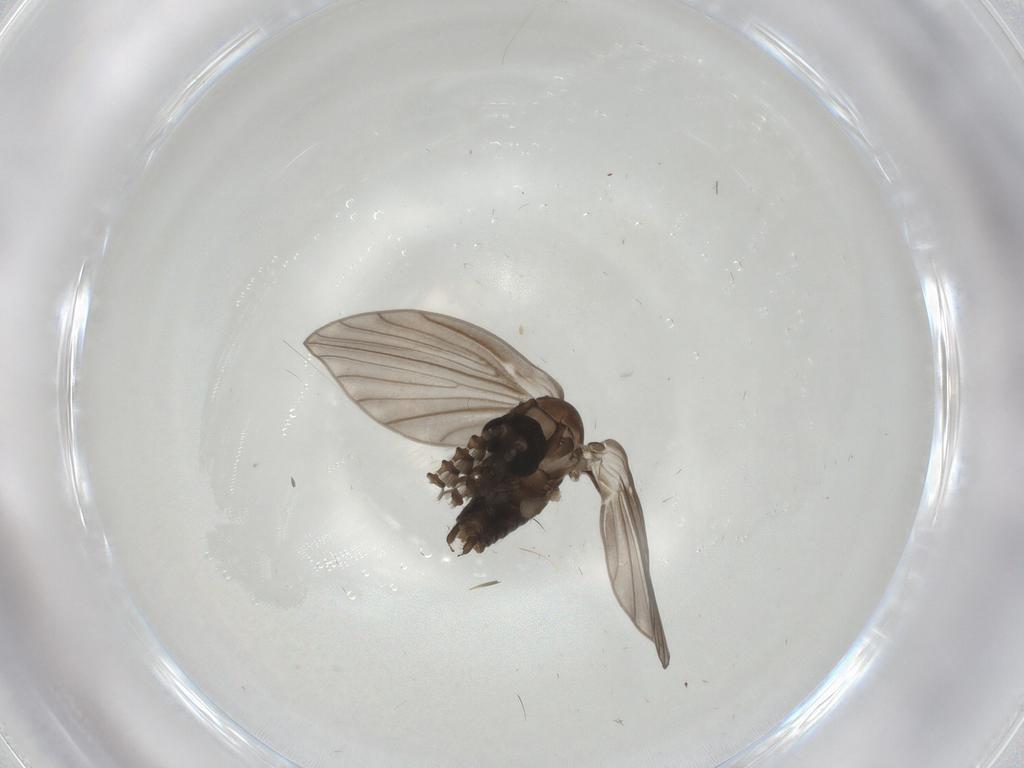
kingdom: Animalia
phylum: Arthropoda
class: Insecta
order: Diptera
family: Psychodidae
